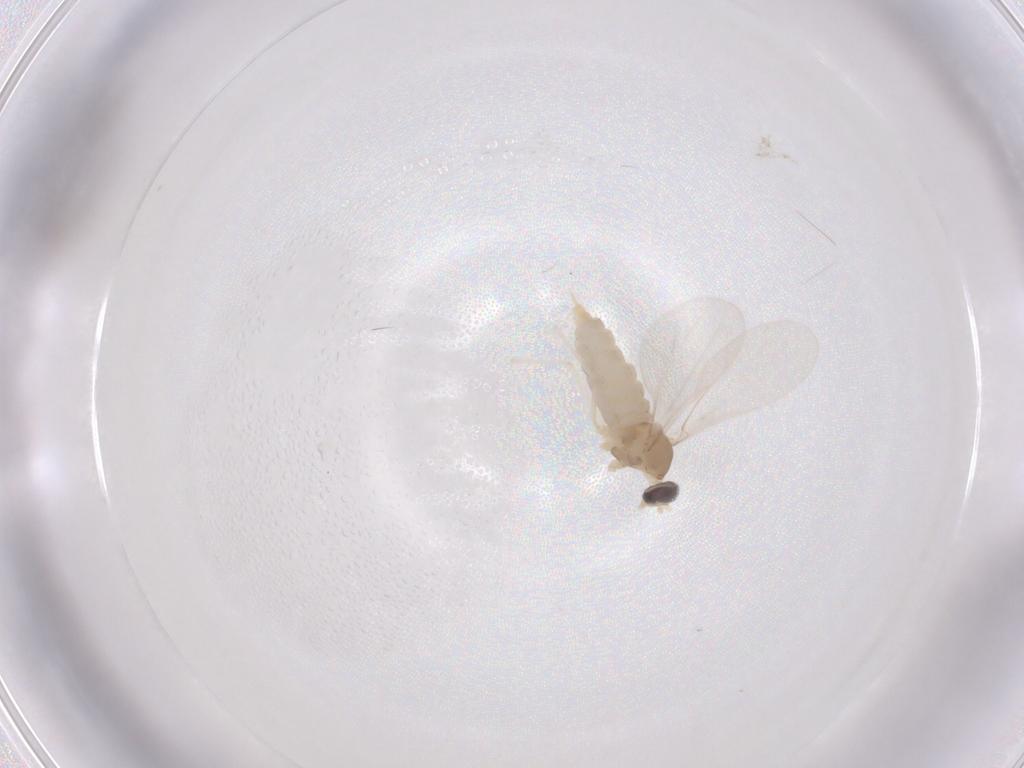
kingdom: Animalia
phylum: Arthropoda
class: Insecta
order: Diptera
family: Cecidomyiidae
